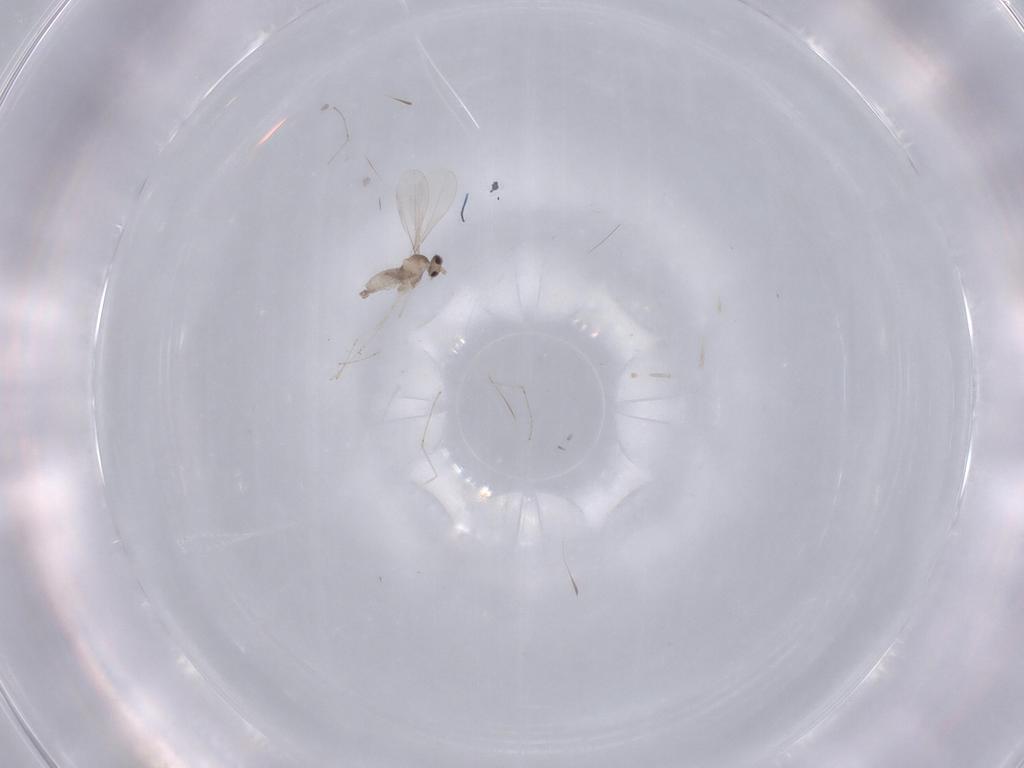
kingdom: Animalia
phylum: Arthropoda
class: Insecta
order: Diptera
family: Cecidomyiidae
